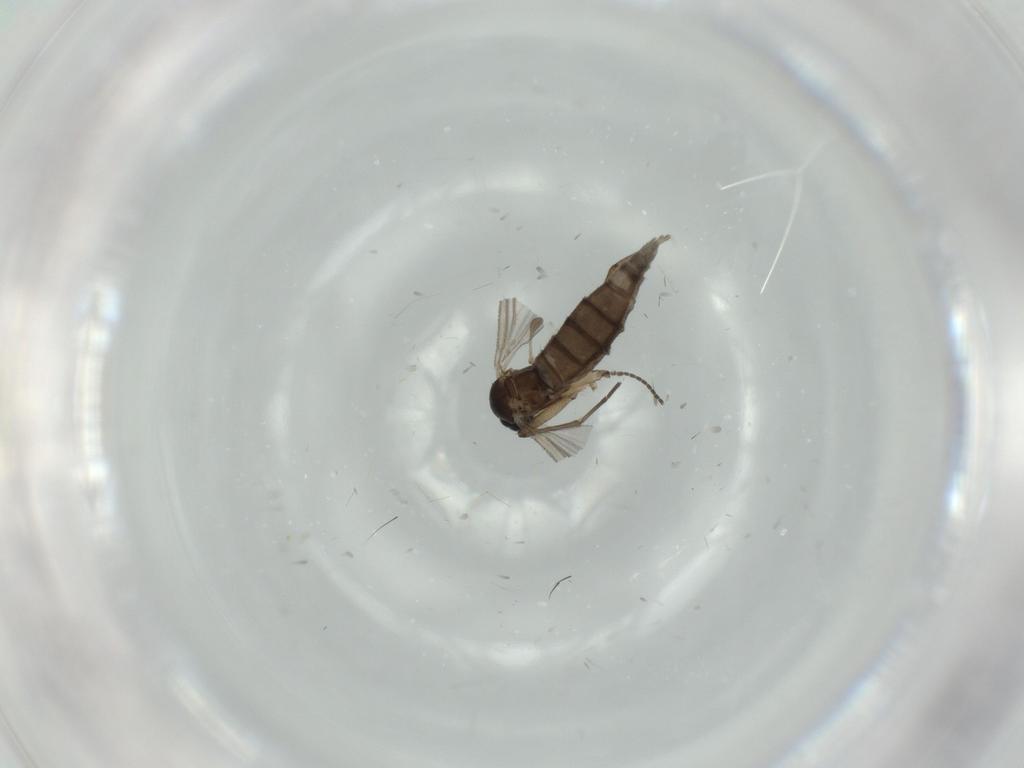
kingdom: Animalia
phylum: Arthropoda
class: Insecta
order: Diptera
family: Sciaridae
